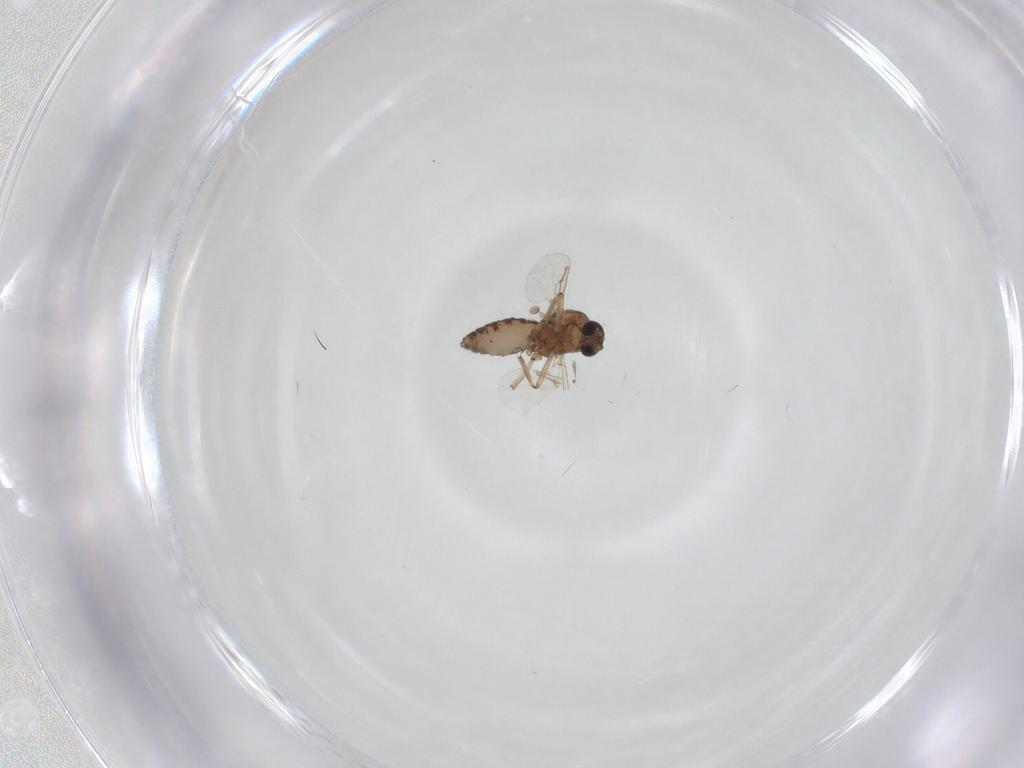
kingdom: Animalia
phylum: Arthropoda
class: Insecta
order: Diptera
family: Ceratopogonidae
